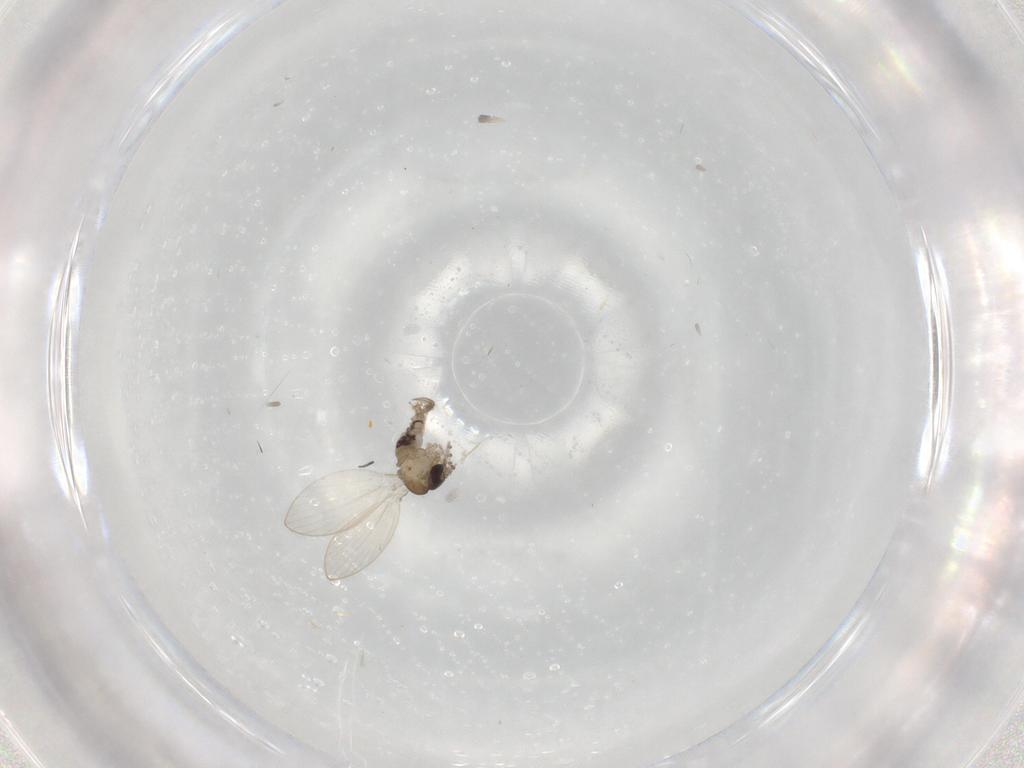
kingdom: Animalia
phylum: Arthropoda
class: Insecta
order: Diptera
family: Psychodidae
